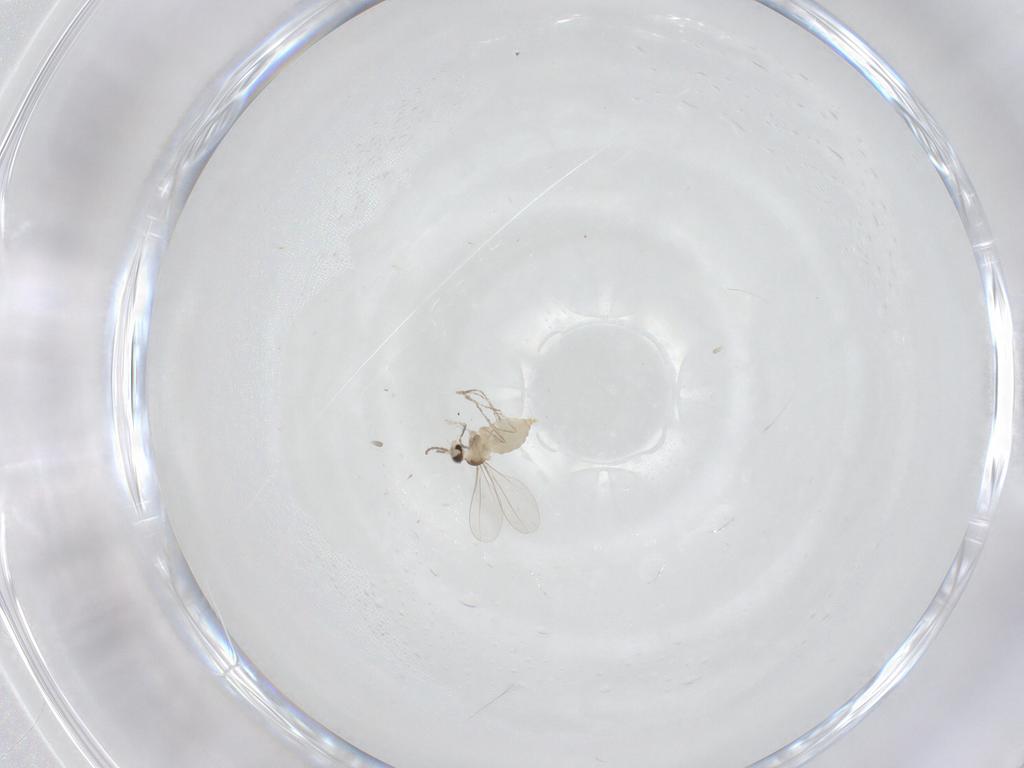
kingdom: Animalia
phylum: Arthropoda
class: Insecta
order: Diptera
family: Cecidomyiidae
